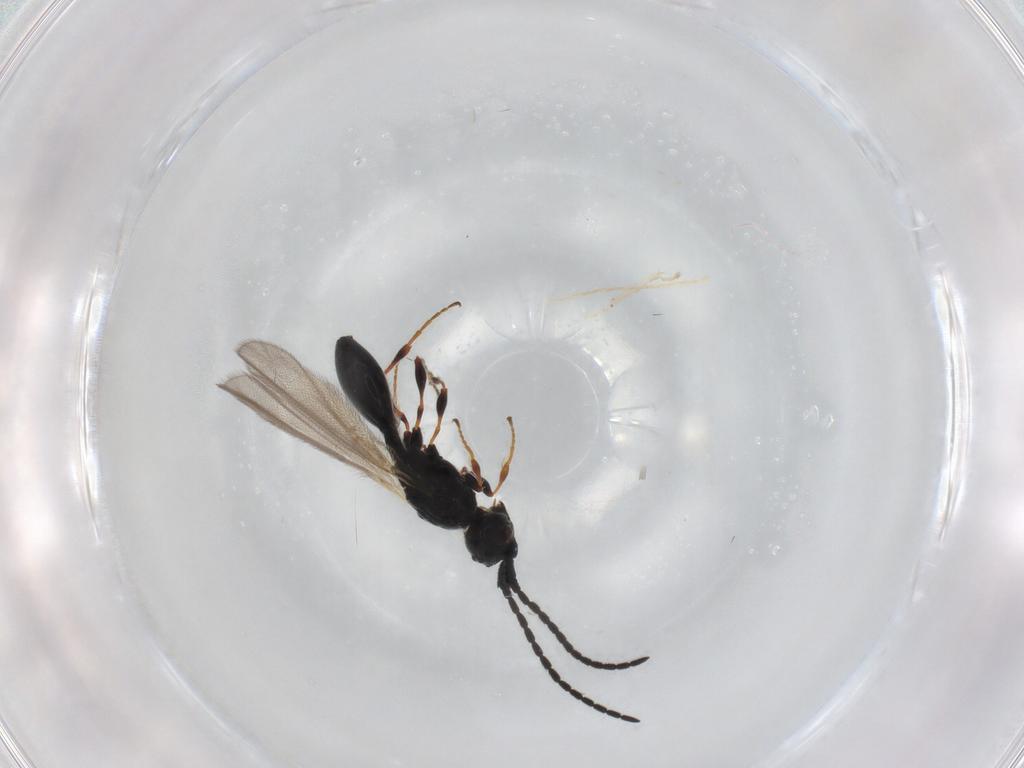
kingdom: Animalia
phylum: Arthropoda
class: Insecta
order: Hymenoptera
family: Diapriidae
